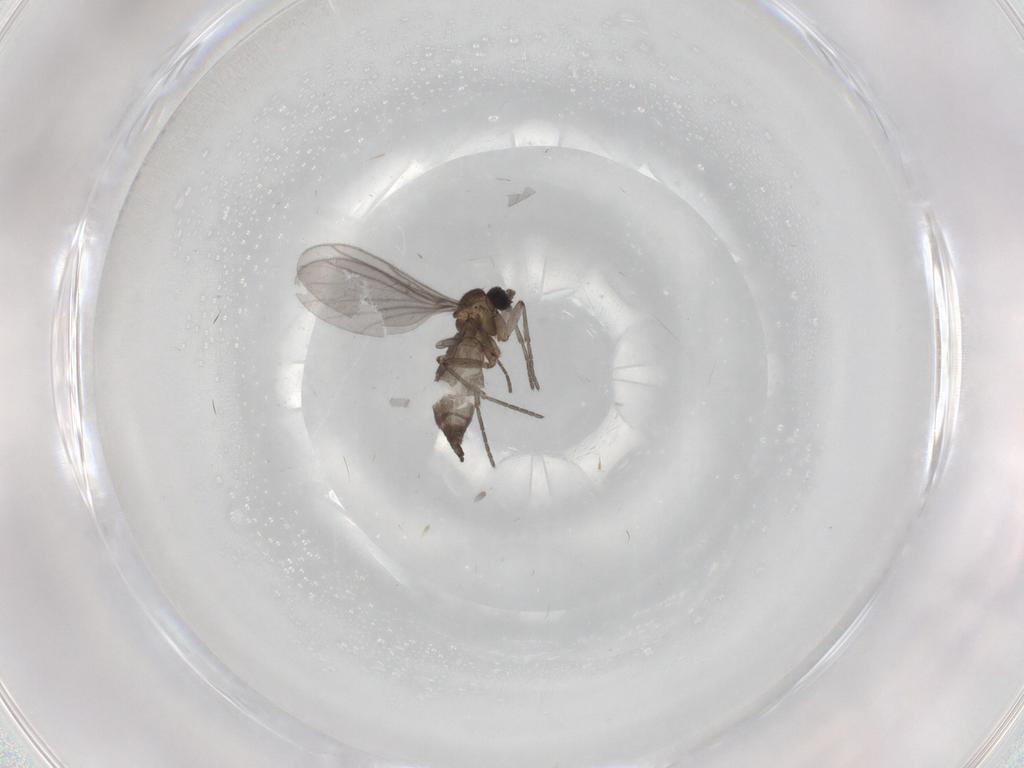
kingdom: Animalia
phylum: Arthropoda
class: Insecta
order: Diptera
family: Sciaridae
